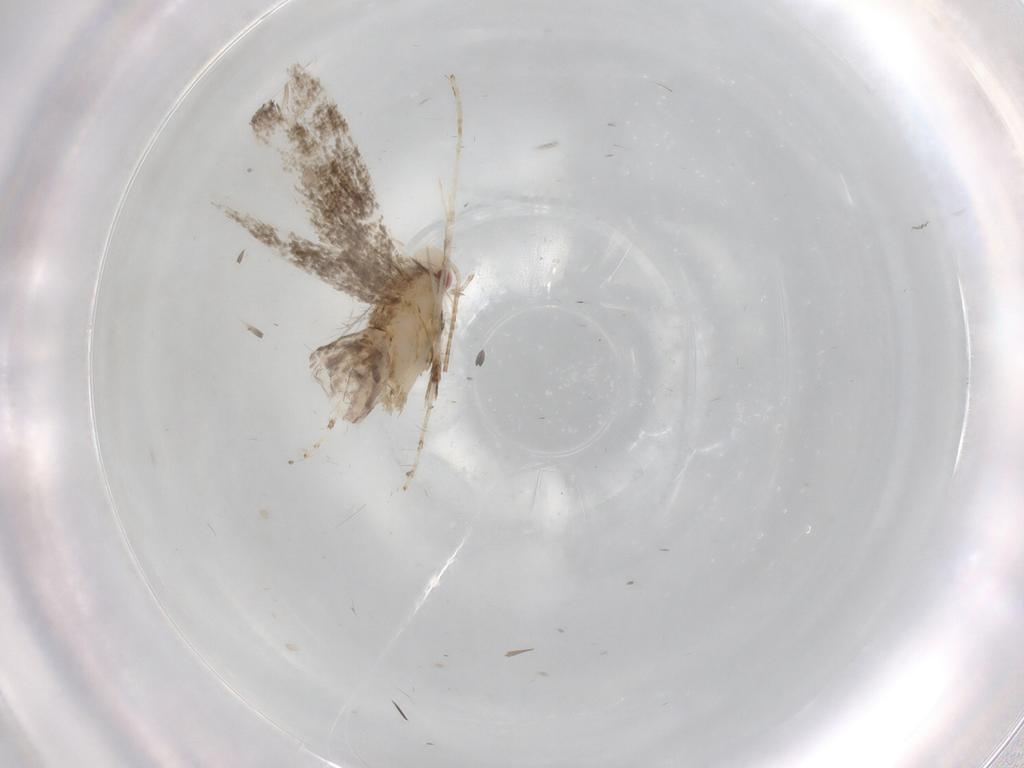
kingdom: Animalia
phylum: Arthropoda
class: Insecta
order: Lepidoptera
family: Gracillariidae
